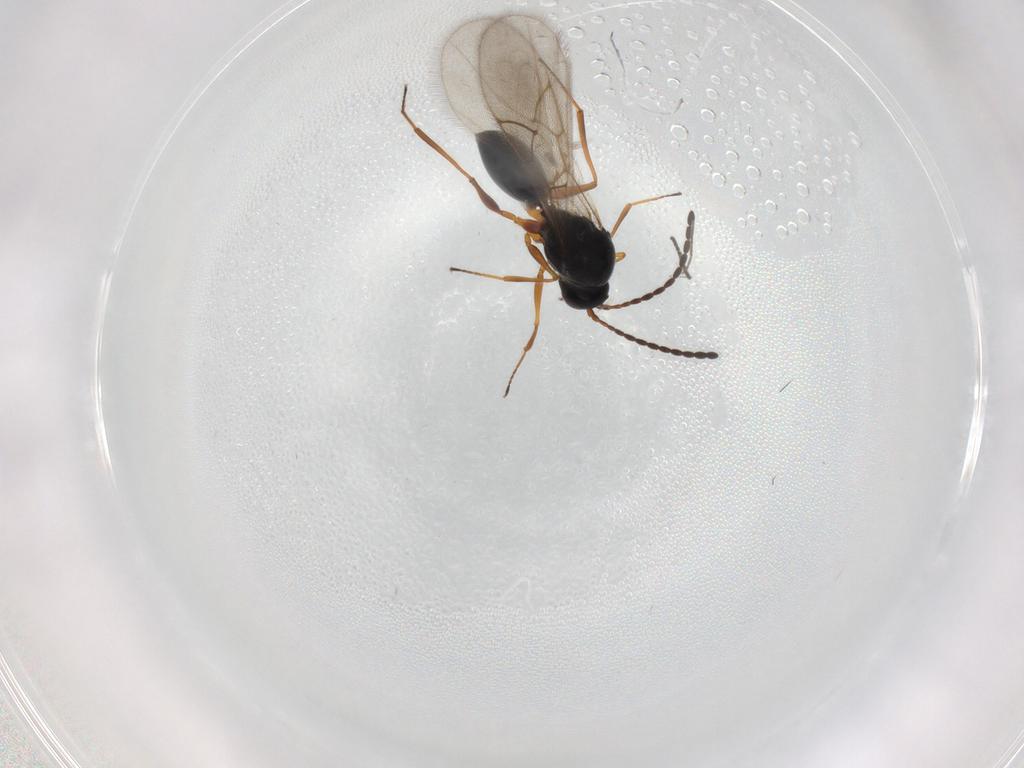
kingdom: Animalia
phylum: Arthropoda
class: Insecta
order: Hymenoptera
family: Figitidae
